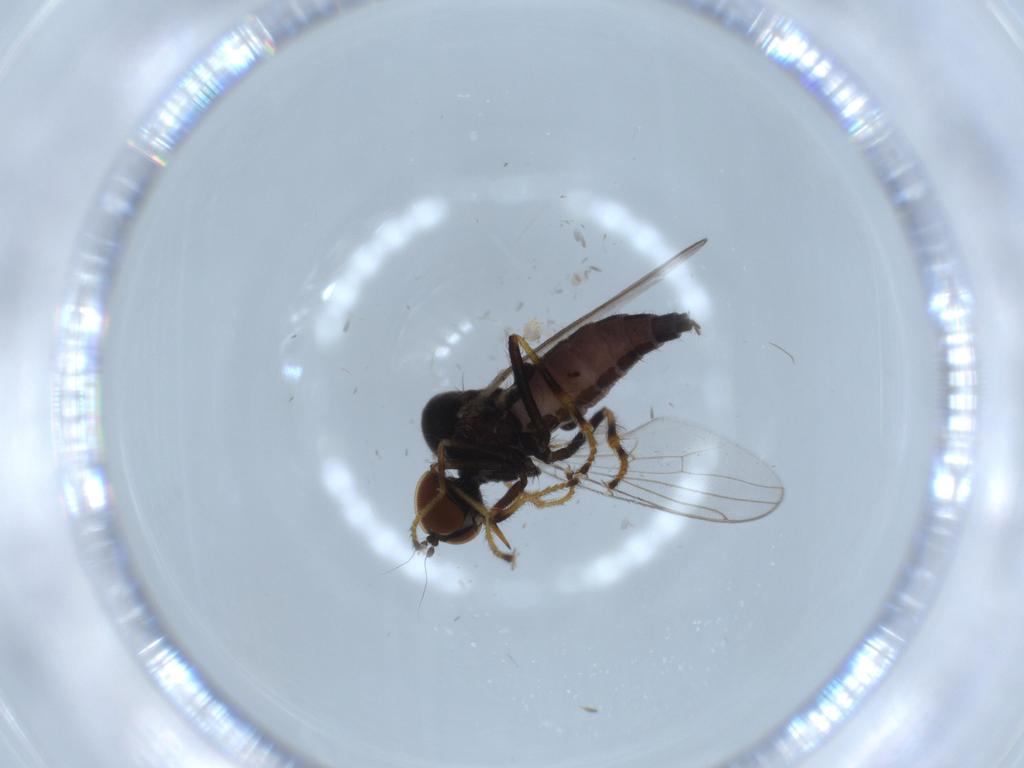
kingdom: Animalia
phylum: Arthropoda
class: Insecta
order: Diptera
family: Hybotidae
